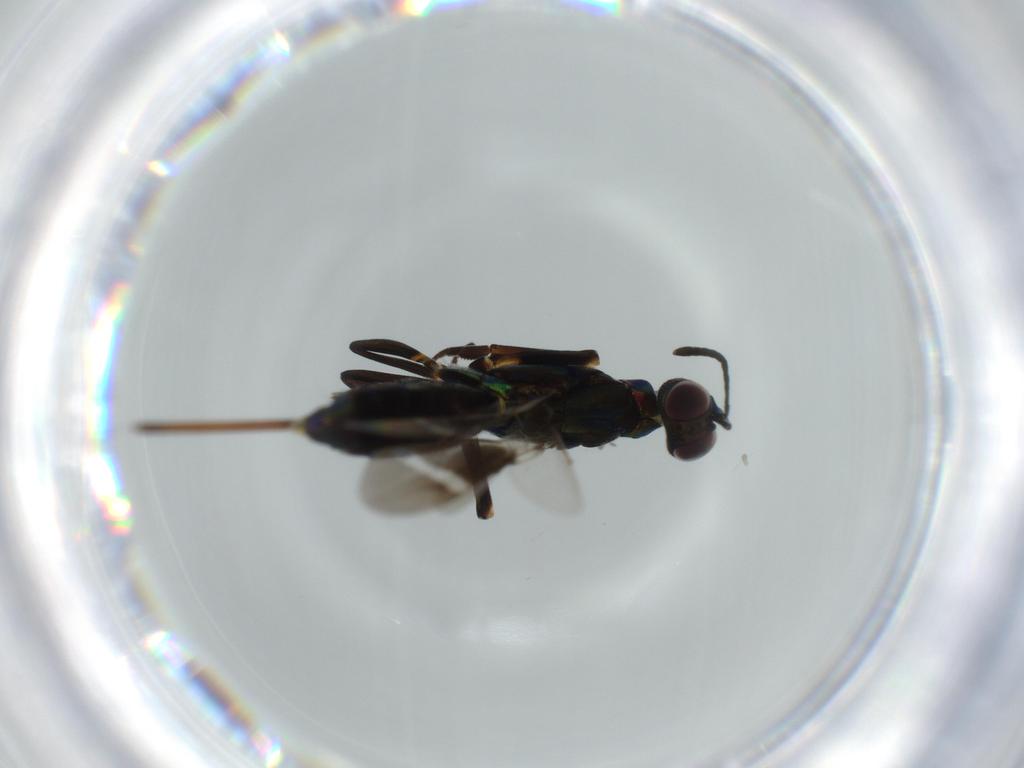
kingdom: Animalia
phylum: Arthropoda
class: Insecta
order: Hymenoptera
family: Eupelmidae
